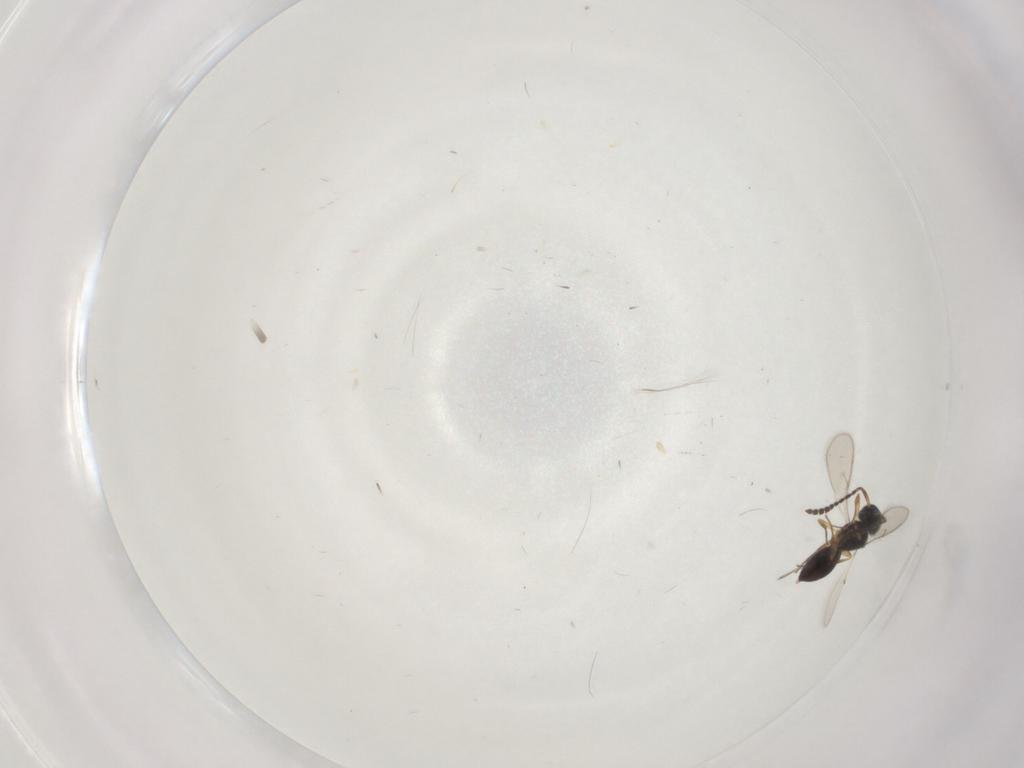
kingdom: Animalia
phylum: Arthropoda
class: Insecta
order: Hymenoptera
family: Scelionidae
